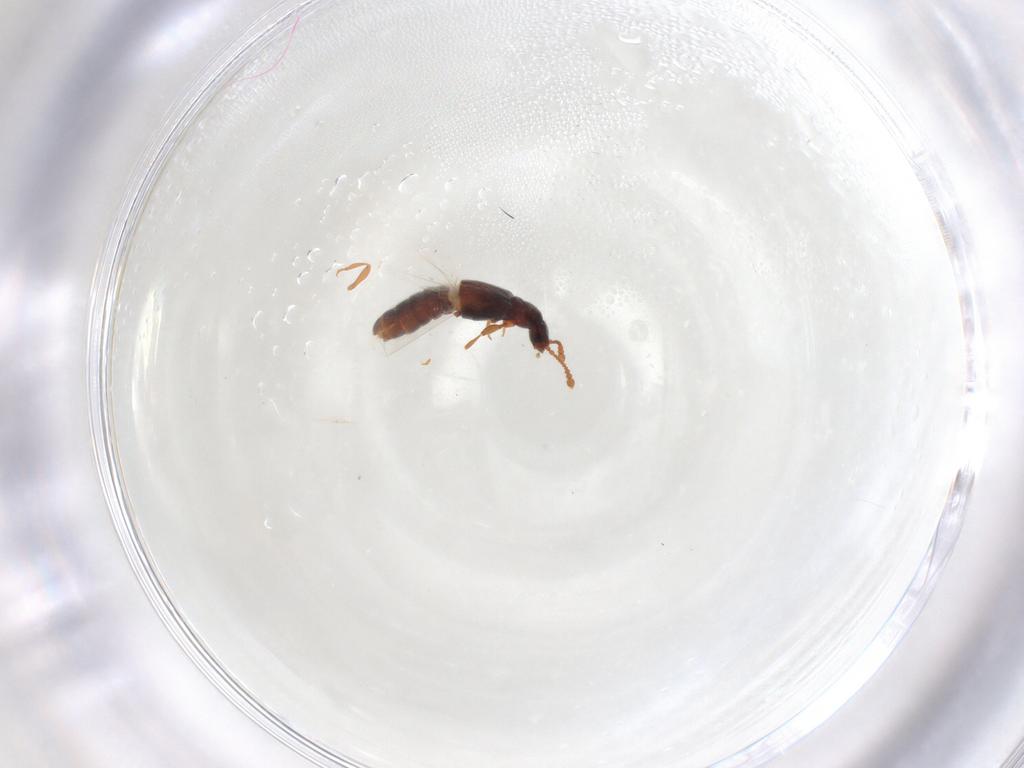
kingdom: Animalia
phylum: Arthropoda
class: Insecta
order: Coleoptera
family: Staphylinidae
